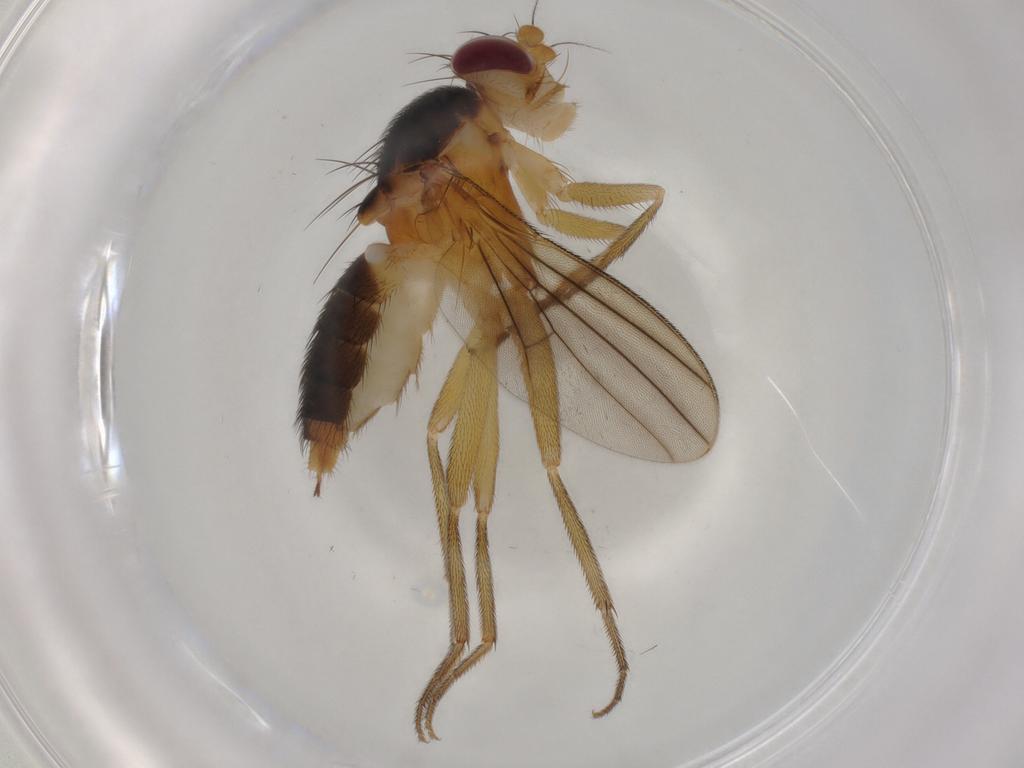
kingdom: Animalia
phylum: Arthropoda
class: Insecta
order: Diptera
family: Clusiidae
